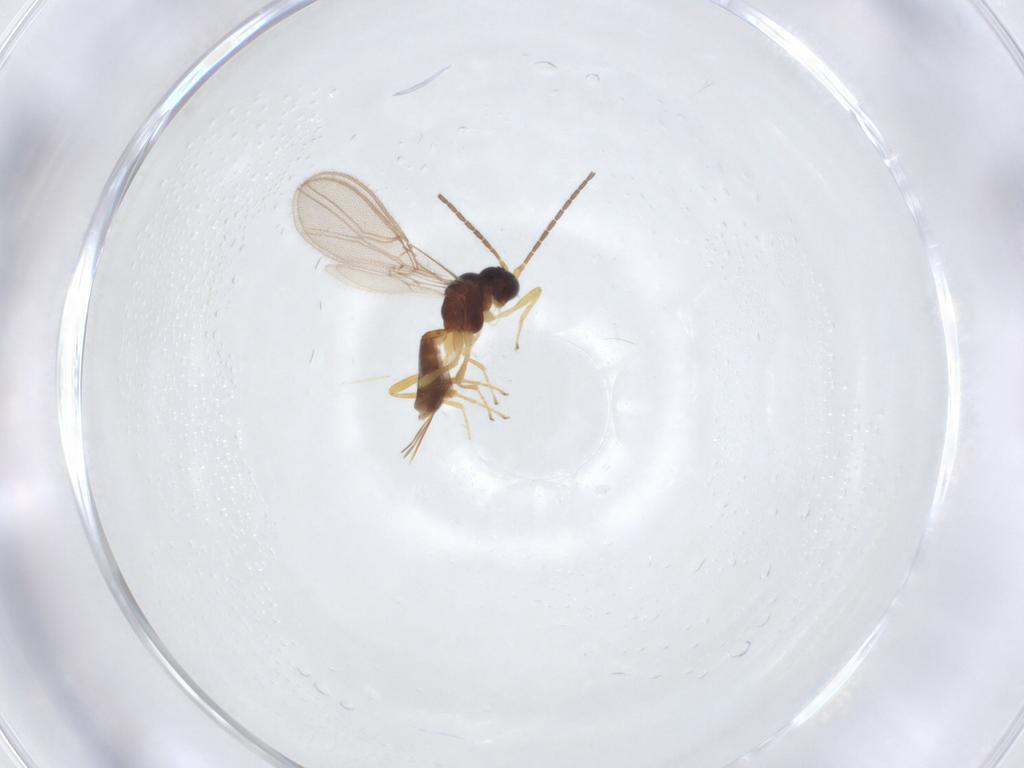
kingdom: Animalia
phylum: Arthropoda
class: Insecta
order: Hymenoptera
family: Braconidae
